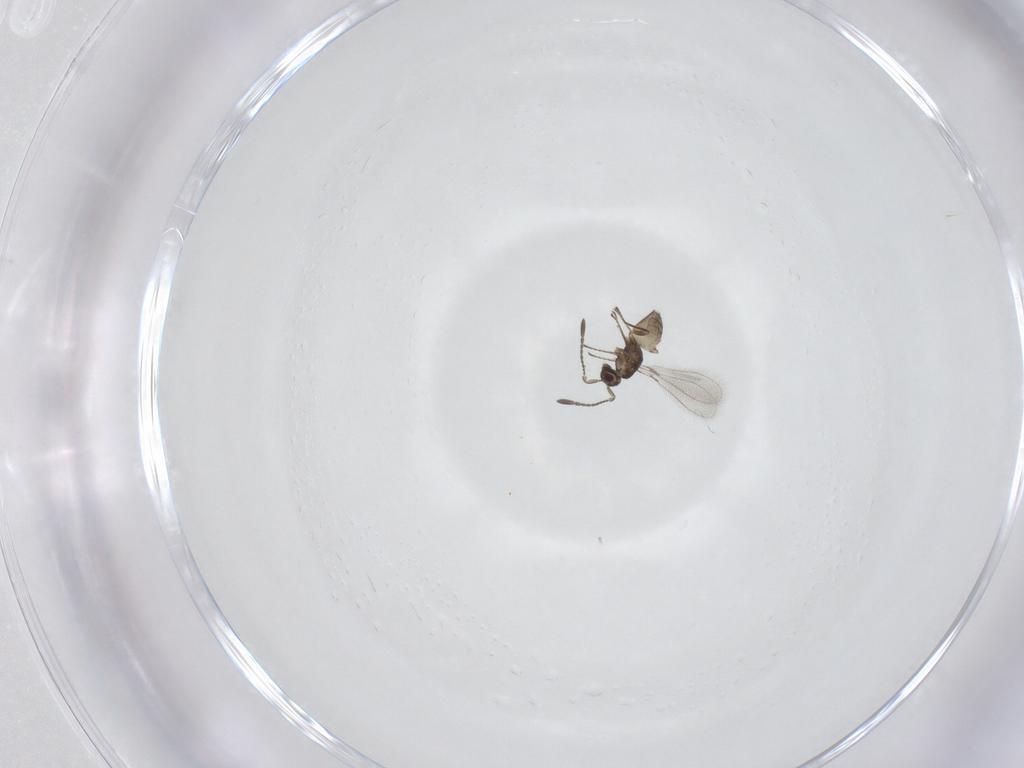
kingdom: Animalia
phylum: Arthropoda
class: Insecta
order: Hymenoptera
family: Mymaridae
